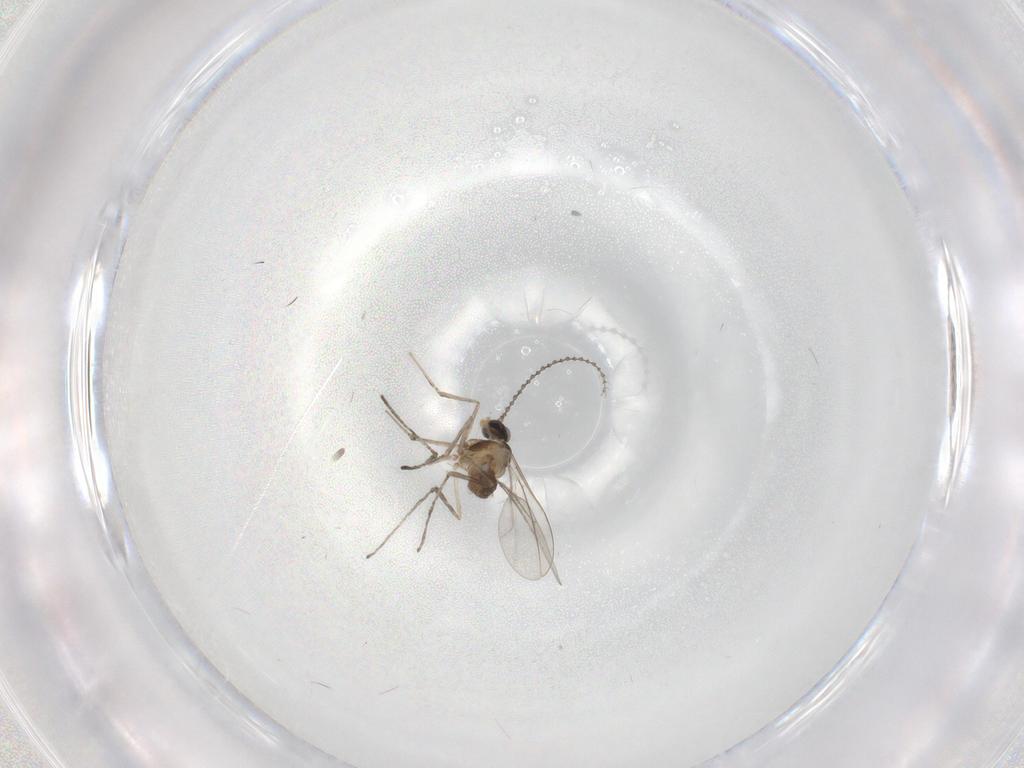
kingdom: Animalia
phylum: Arthropoda
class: Insecta
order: Diptera
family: Cecidomyiidae
